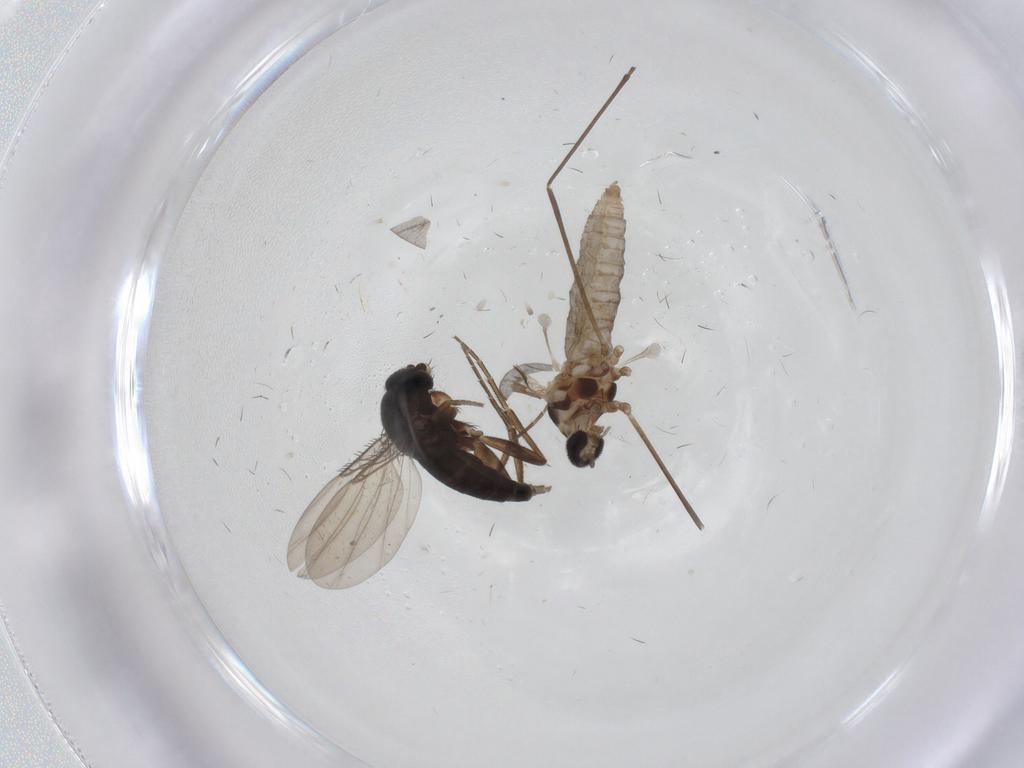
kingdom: Animalia
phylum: Arthropoda
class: Insecta
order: Diptera
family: Cecidomyiidae
